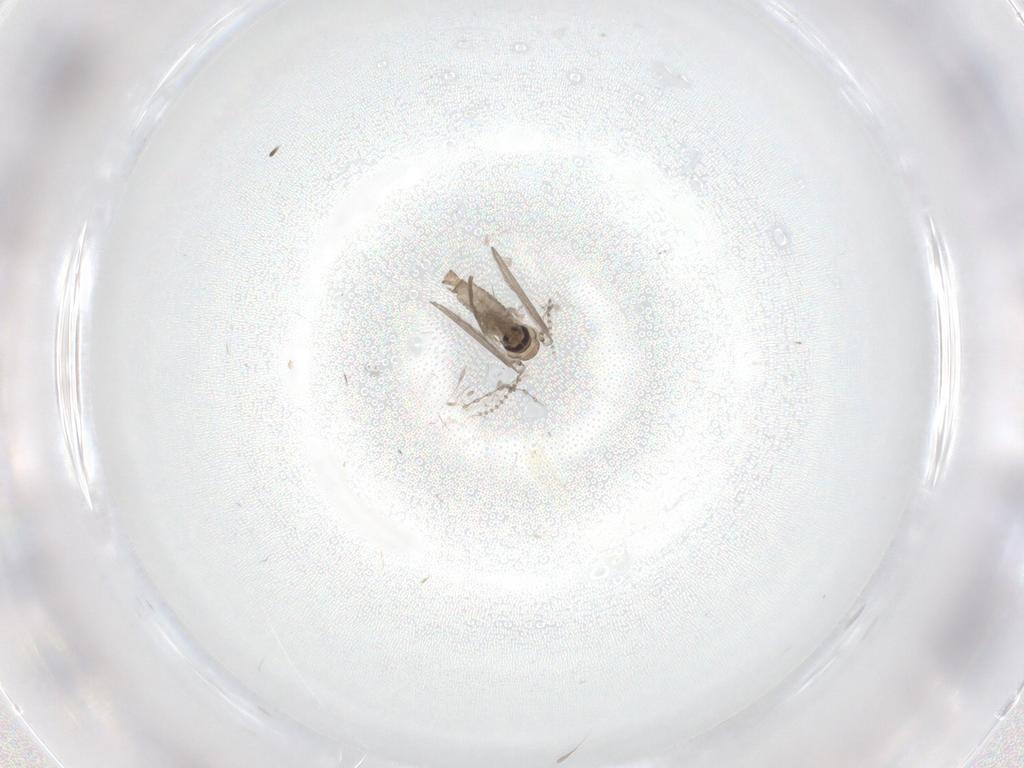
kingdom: Animalia
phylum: Arthropoda
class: Insecta
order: Diptera
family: Psychodidae
